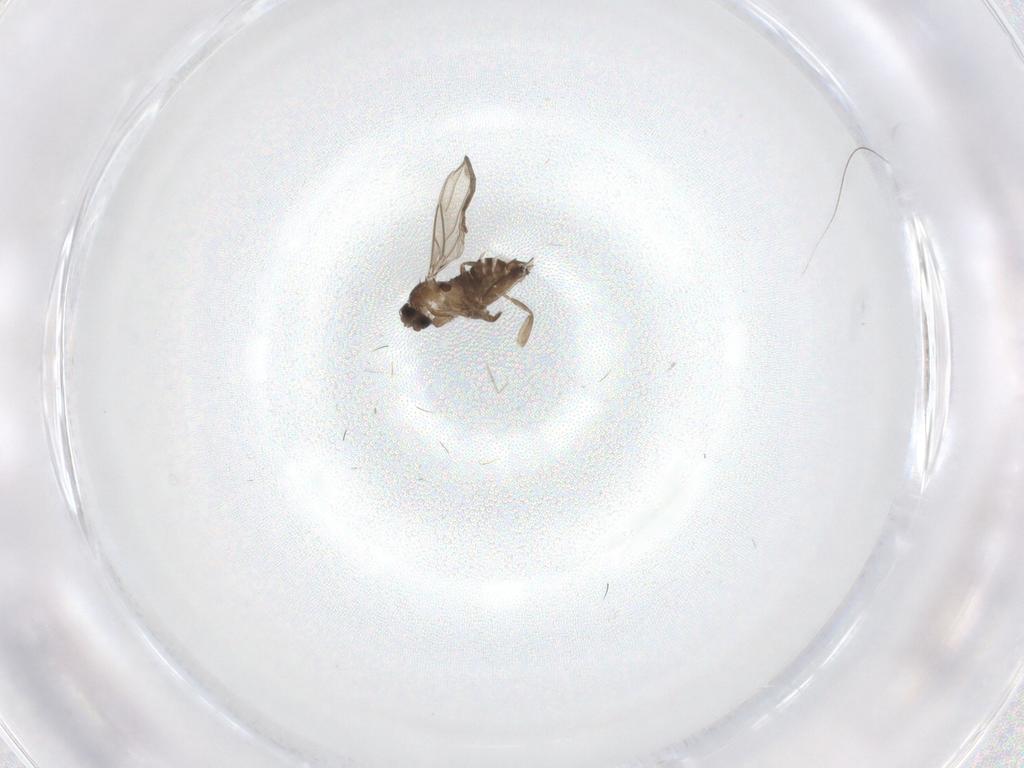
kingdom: Animalia
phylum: Arthropoda
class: Insecta
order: Diptera
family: Cecidomyiidae
